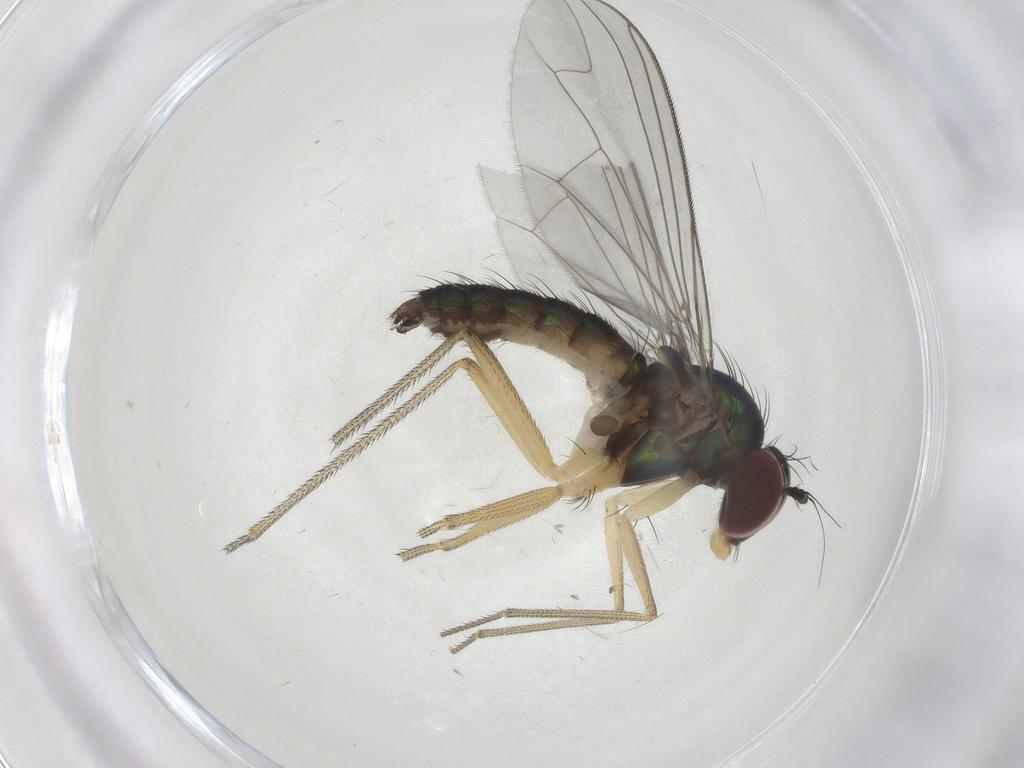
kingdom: Animalia
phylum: Arthropoda
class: Insecta
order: Diptera
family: Dolichopodidae
